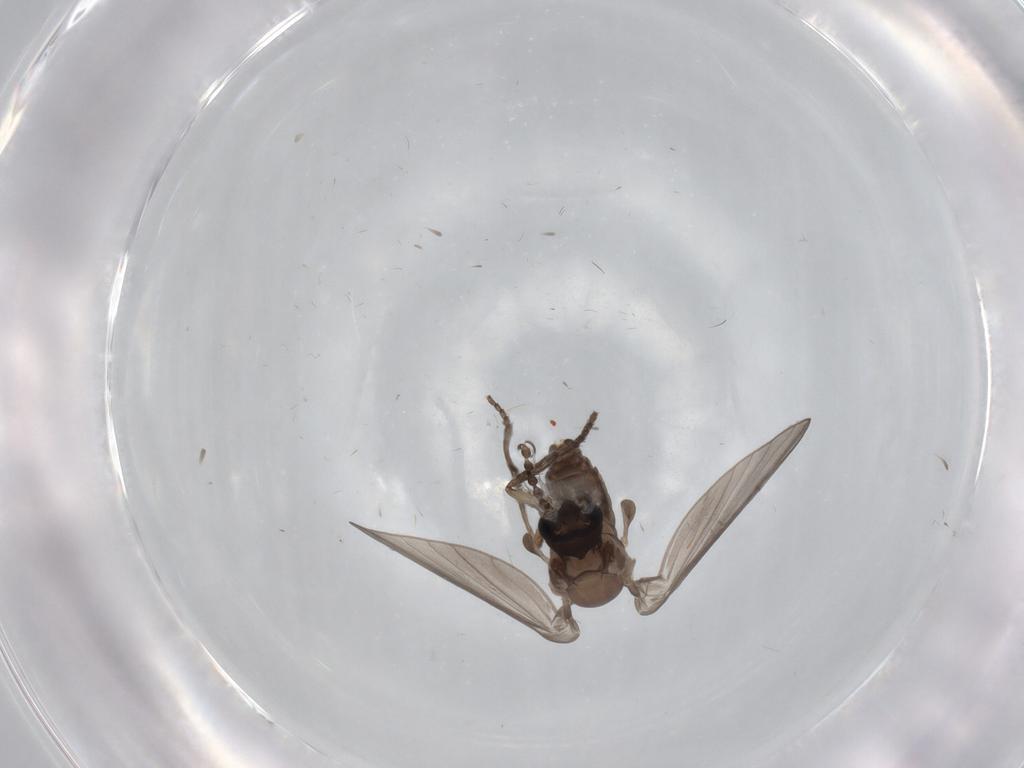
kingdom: Animalia
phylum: Arthropoda
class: Insecta
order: Diptera
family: Psychodidae
